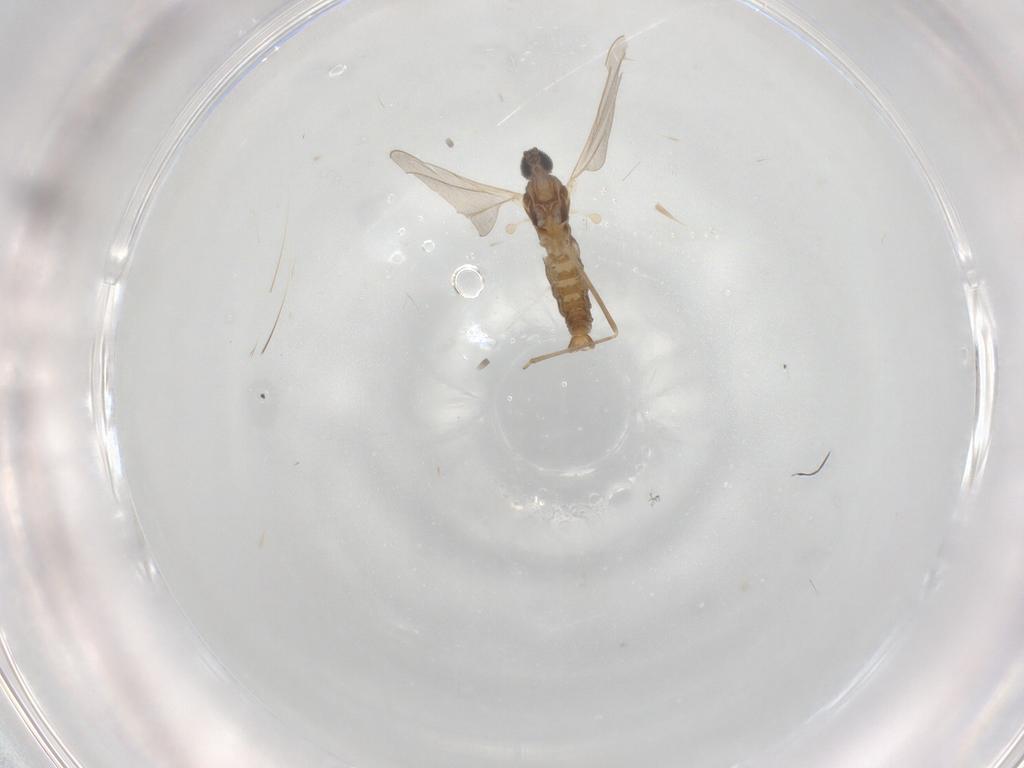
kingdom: Animalia
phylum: Arthropoda
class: Insecta
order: Diptera
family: Cecidomyiidae
